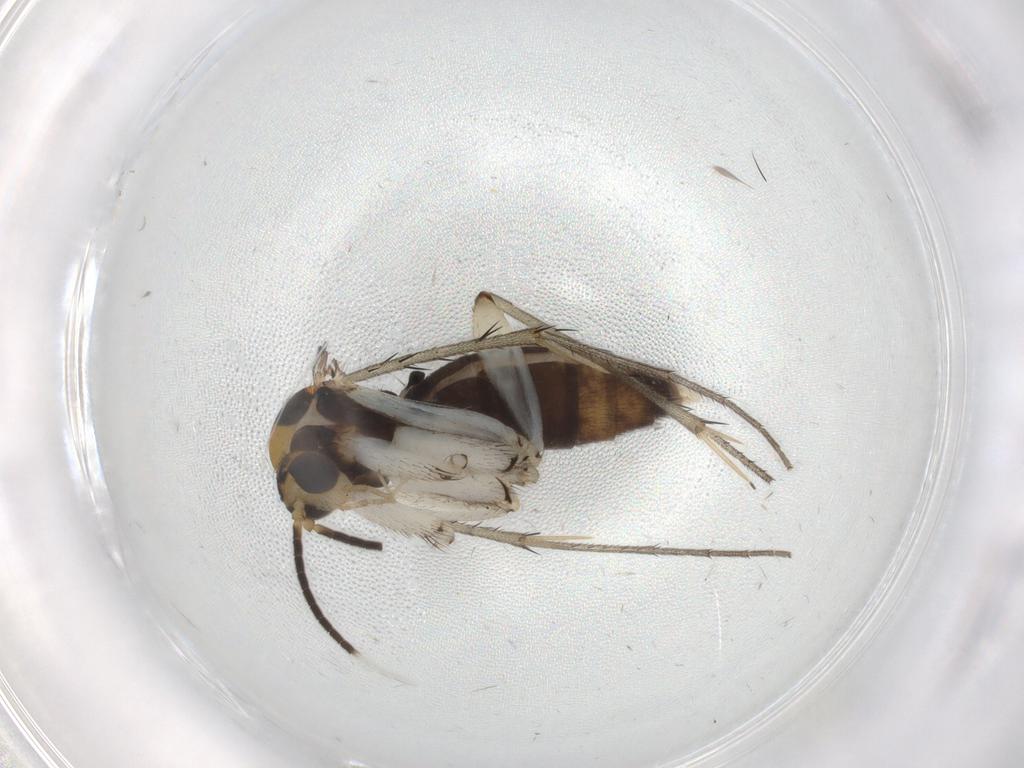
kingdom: Animalia
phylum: Arthropoda
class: Insecta
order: Diptera
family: Mycetophilidae
